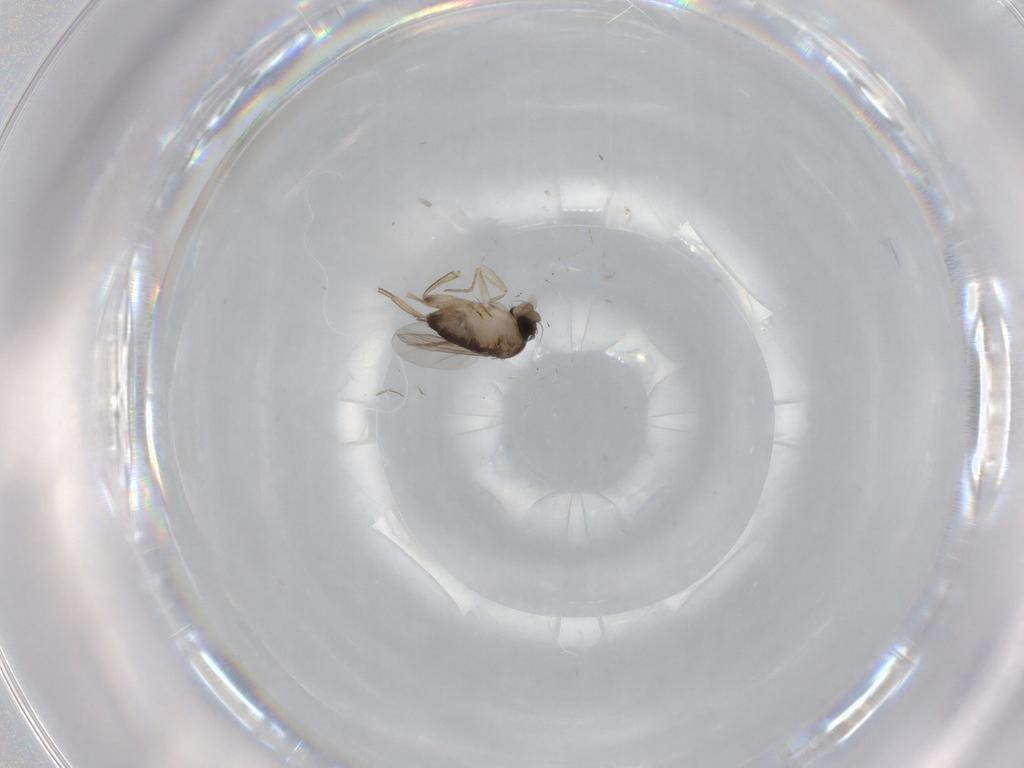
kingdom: Animalia
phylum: Arthropoda
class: Insecta
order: Diptera
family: Phoridae
